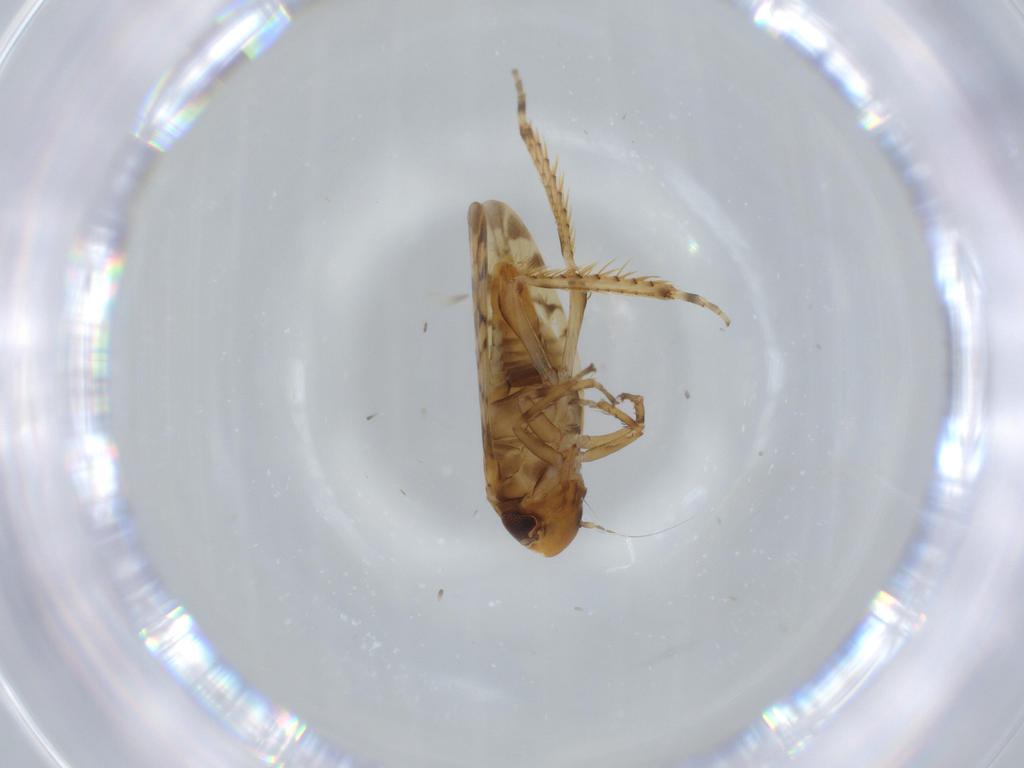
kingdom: Animalia
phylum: Arthropoda
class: Insecta
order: Hemiptera
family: Cicadellidae
